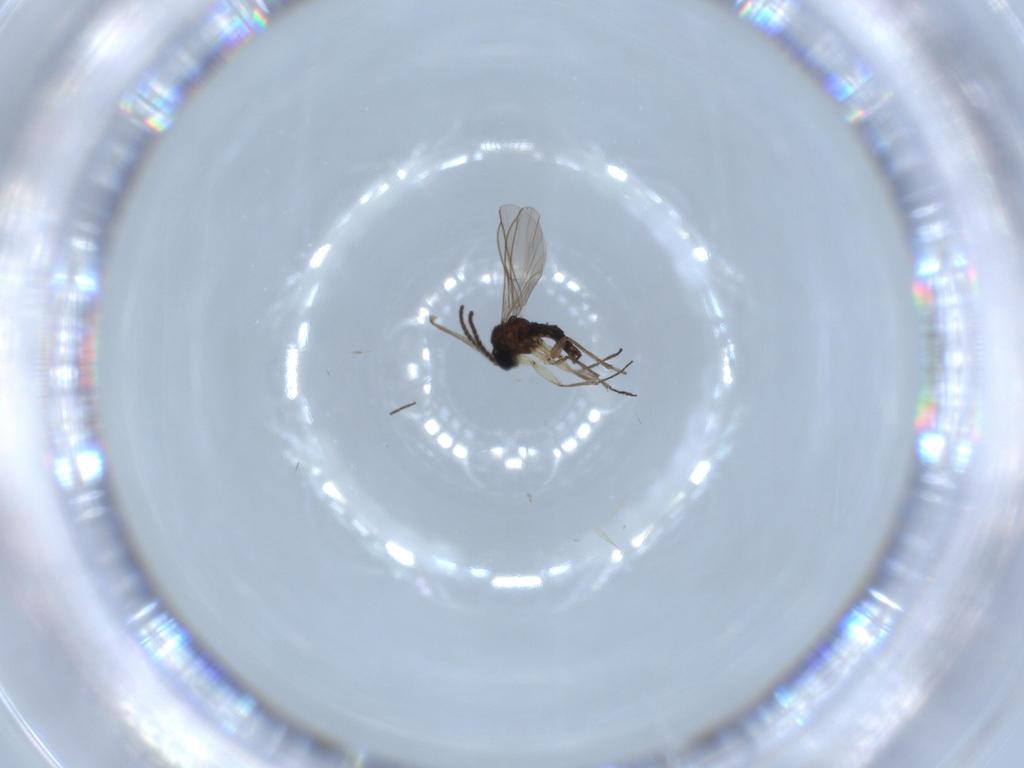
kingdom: Animalia
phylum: Arthropoda
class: Insecta
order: Diptera
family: Sciaridae
